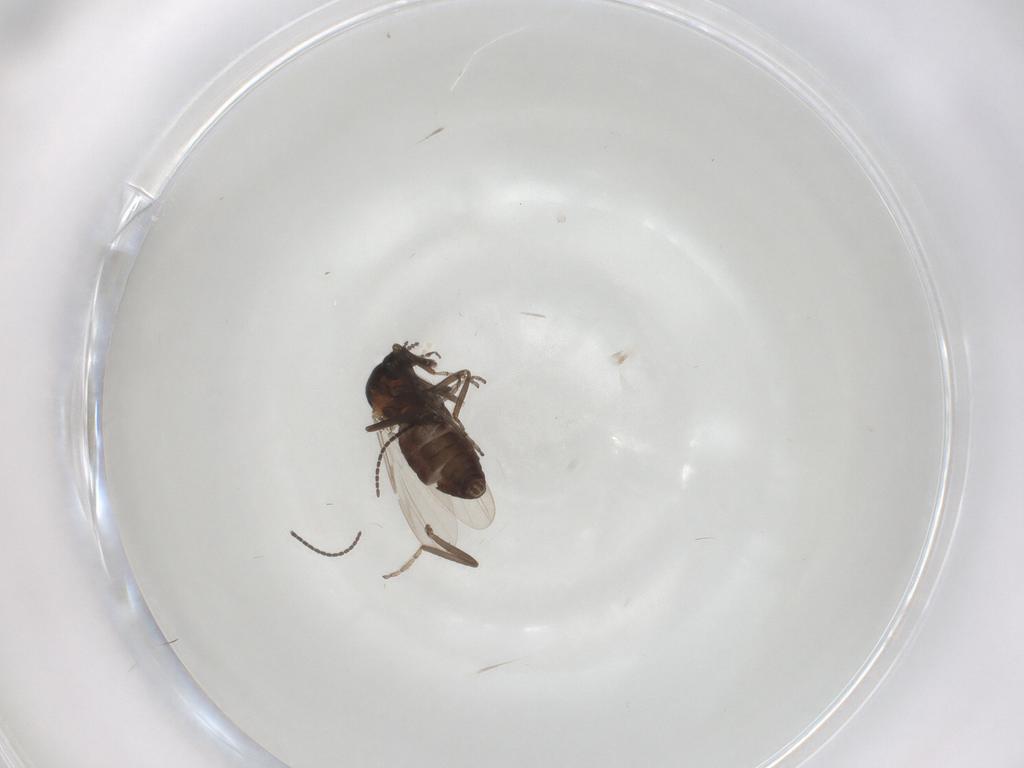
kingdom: Animalia
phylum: Arthropoda
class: Insecta
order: Diptera
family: Ceratopogonidae
